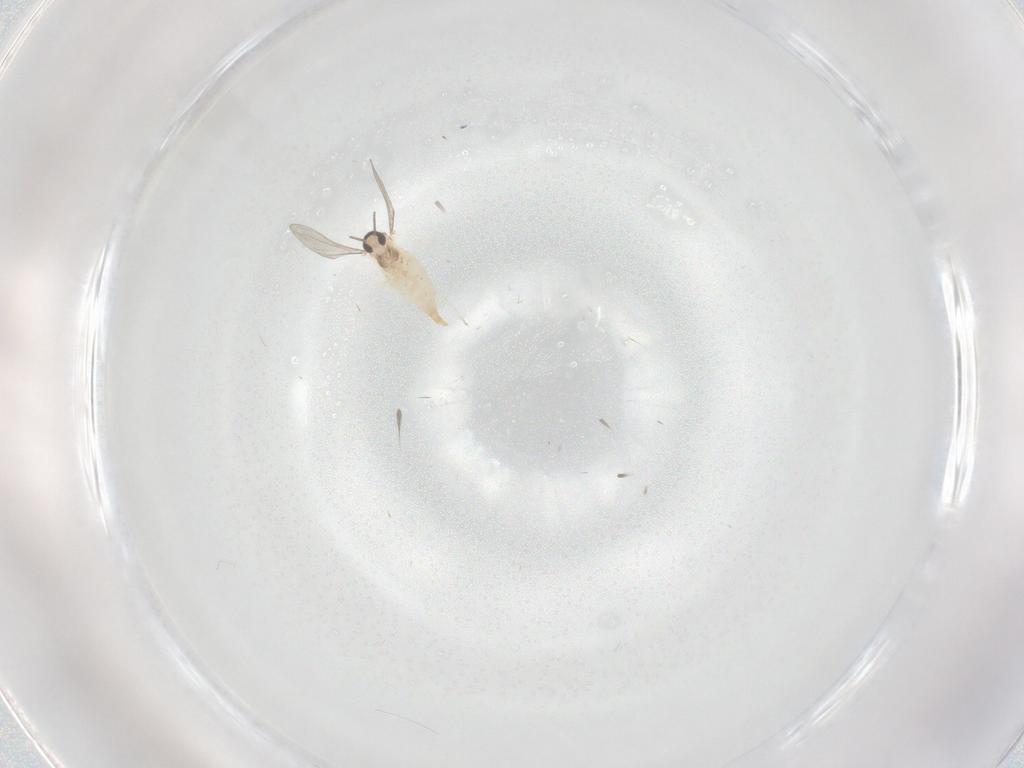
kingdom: Animalia
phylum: Arthropoda
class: Insecta
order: Diptera
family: Cecidomyiidae
